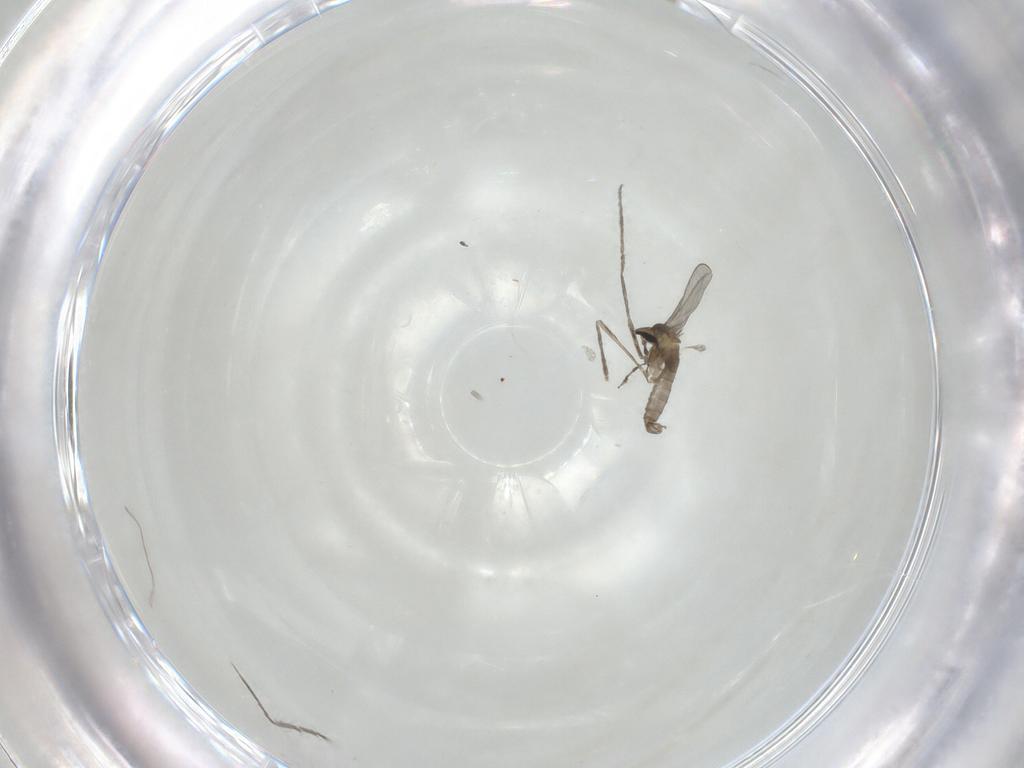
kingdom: Animalia
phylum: Arthropoda
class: Insecta
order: Diptera
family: Cecidomyiidae
